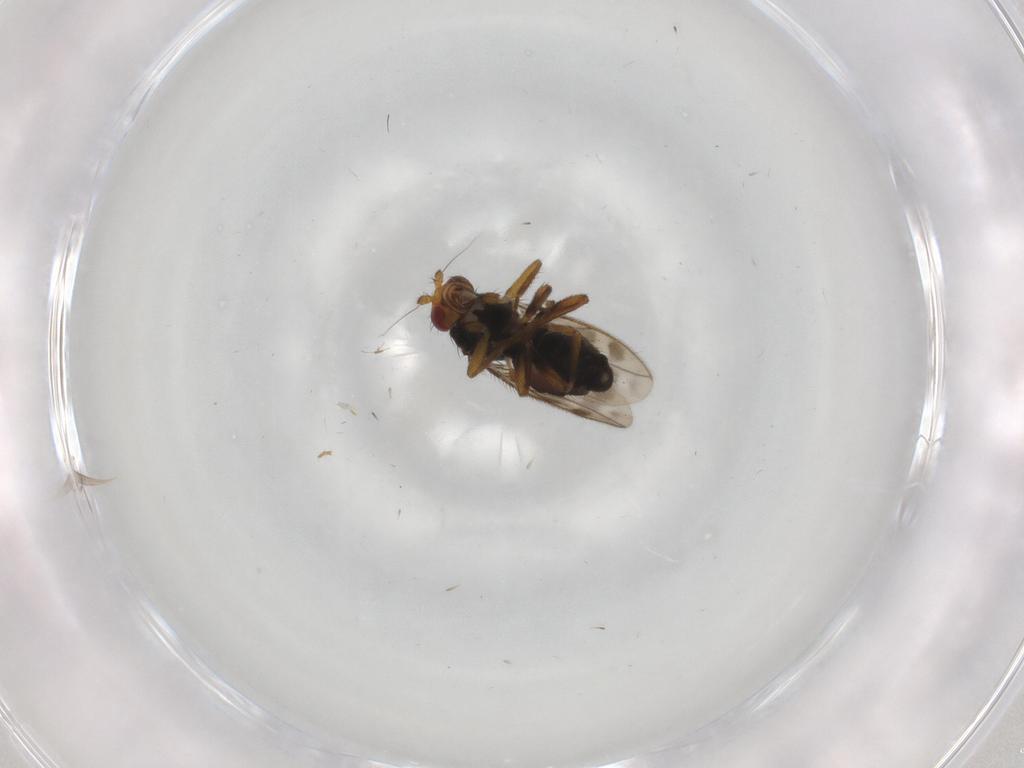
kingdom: Animalia
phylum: Arthropoda
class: Insecta
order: Diptera
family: Sphaeroceridae
